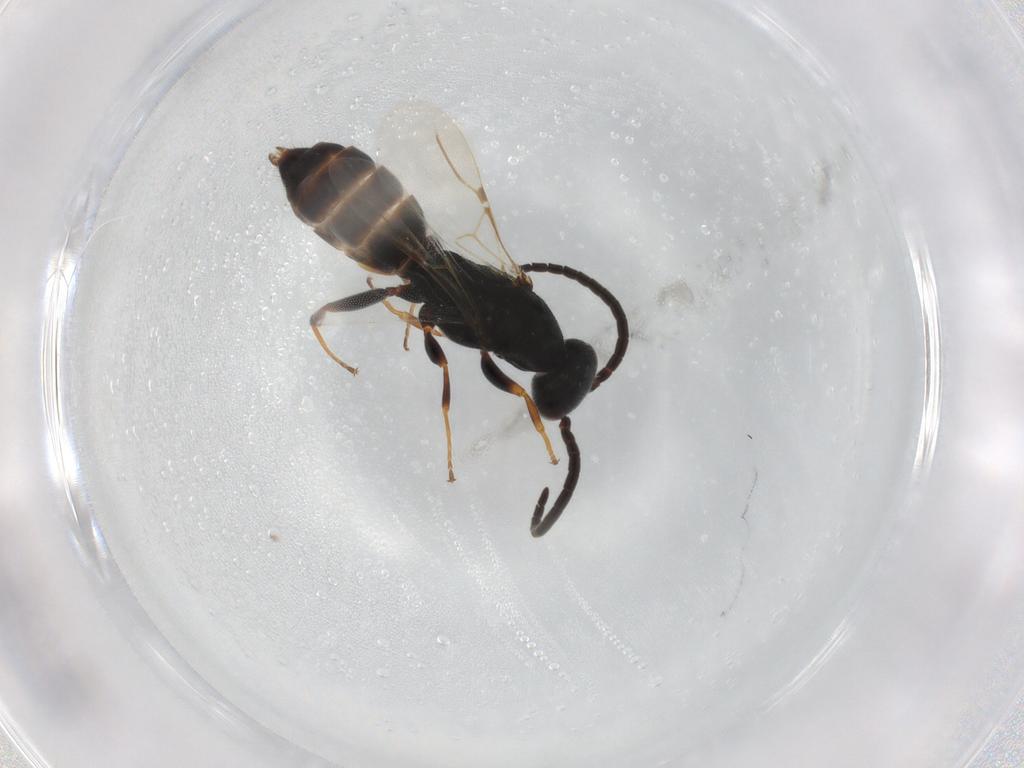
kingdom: Animalia
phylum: Arthropoda
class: Insecta
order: Hymenoptera
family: Bethylidae
